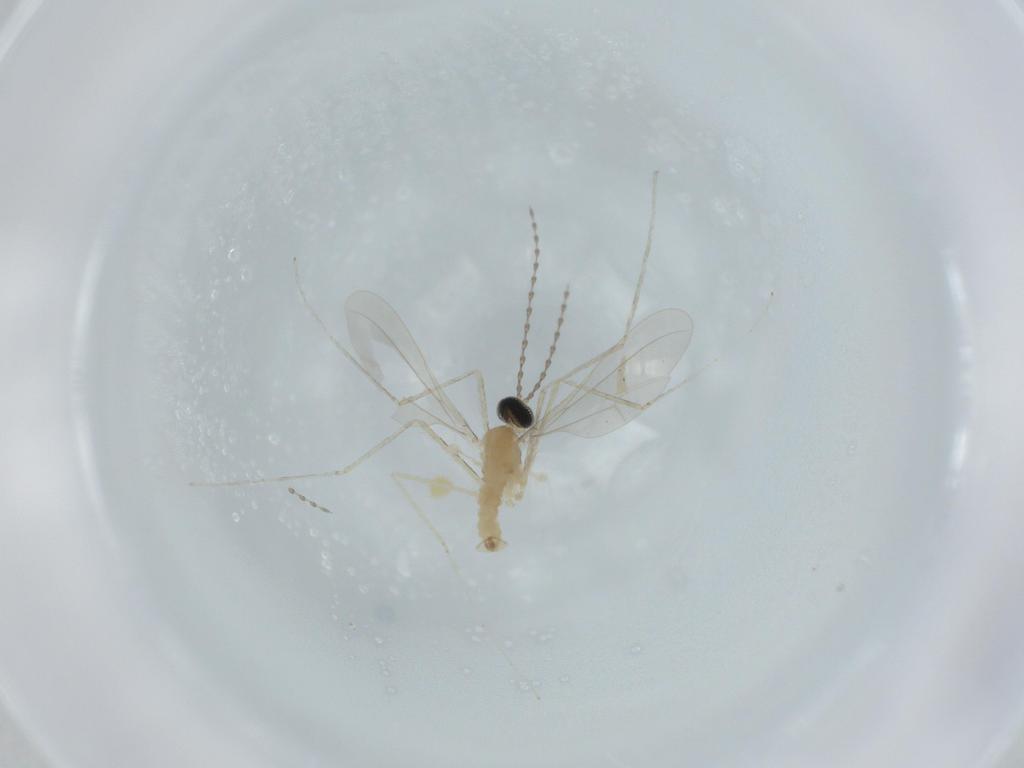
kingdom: Animalia
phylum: Arthropoda
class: Insecta
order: Diptera
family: Cecidomyiidae
